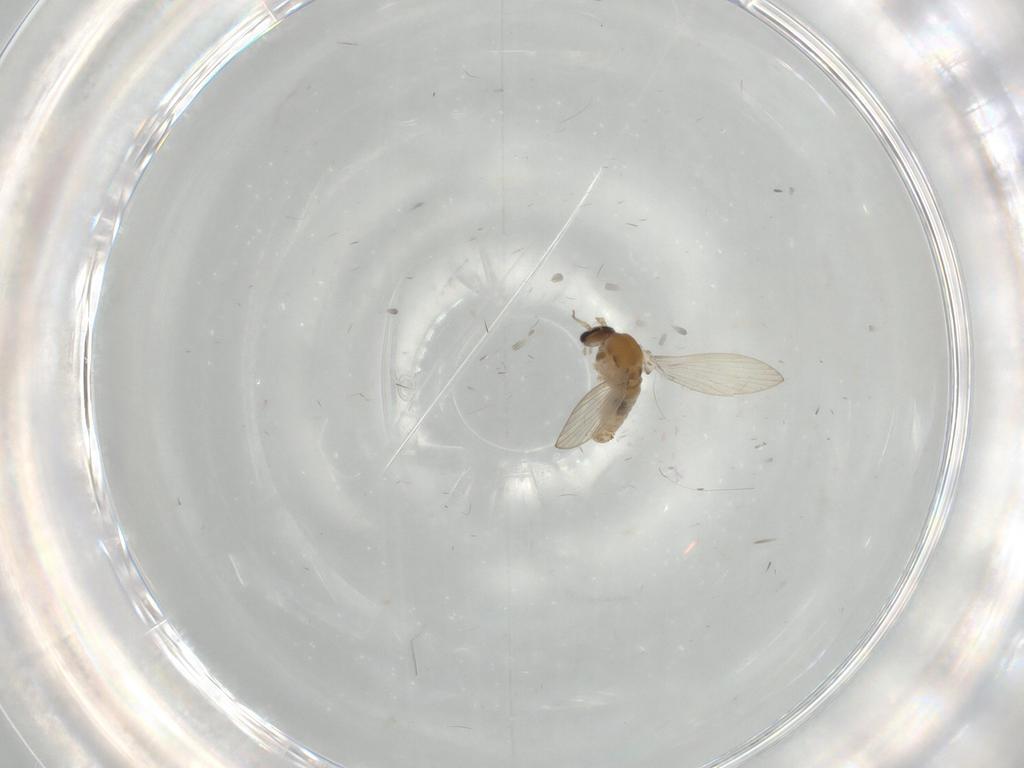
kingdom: Animalia
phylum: Arthropoda
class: Insecta
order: Diptera
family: Psychodidae
